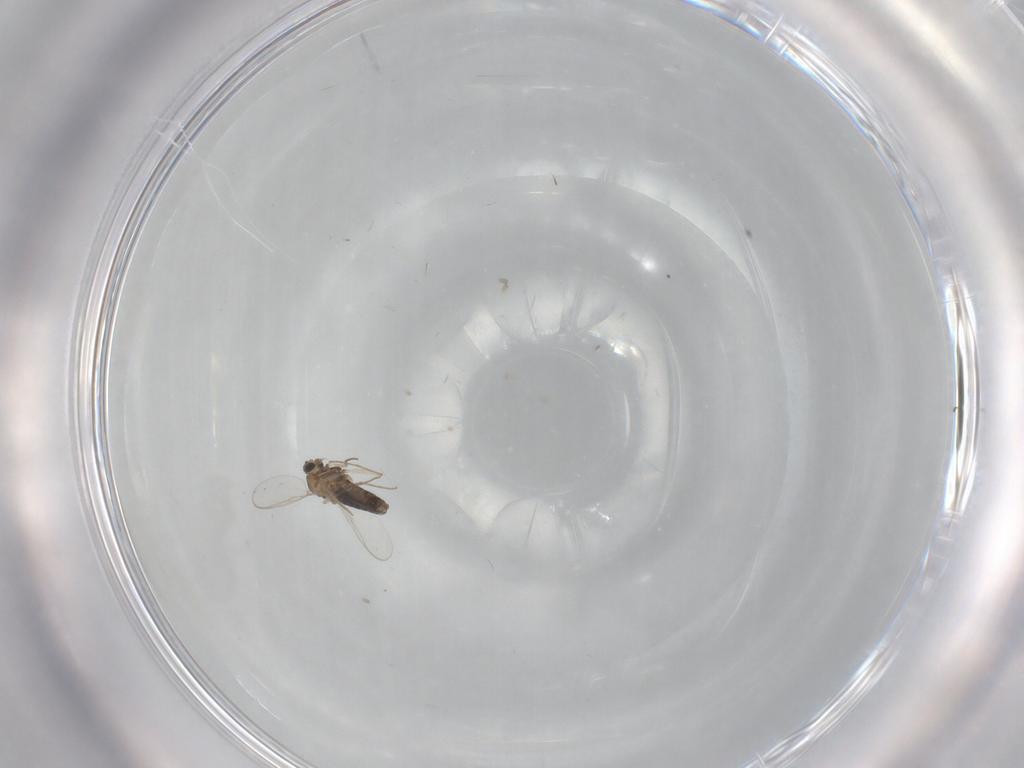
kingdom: Animalia
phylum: Arthropoda
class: Insecta
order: Diptera
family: Chironomidae
